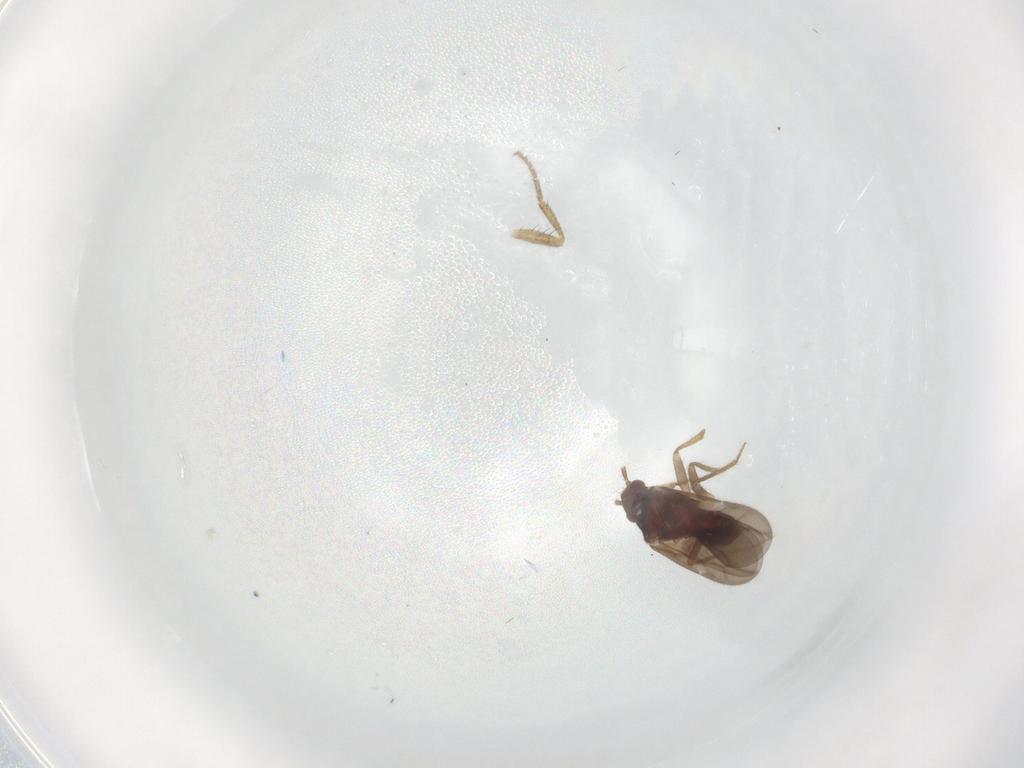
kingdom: Animalia
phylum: Arthropoda
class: Insecta
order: Hemiptera
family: Ceratocombidae
